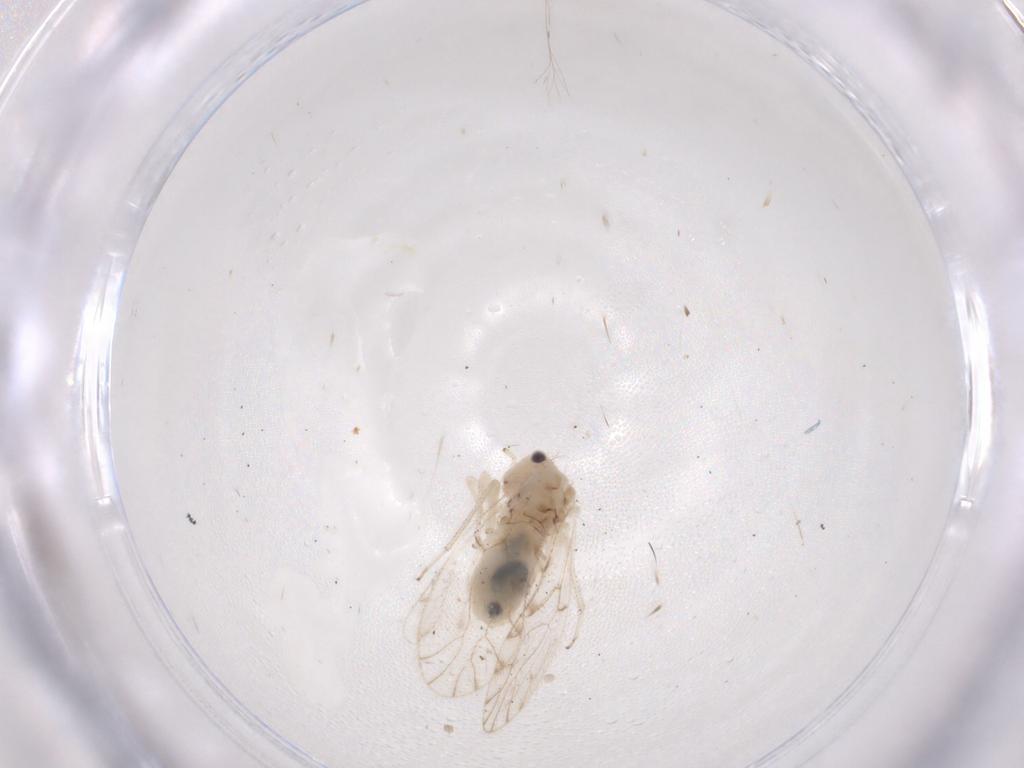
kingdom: Animalia
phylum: Arthropoda
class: Insecta
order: Psocodea
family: Trichopsocidae
